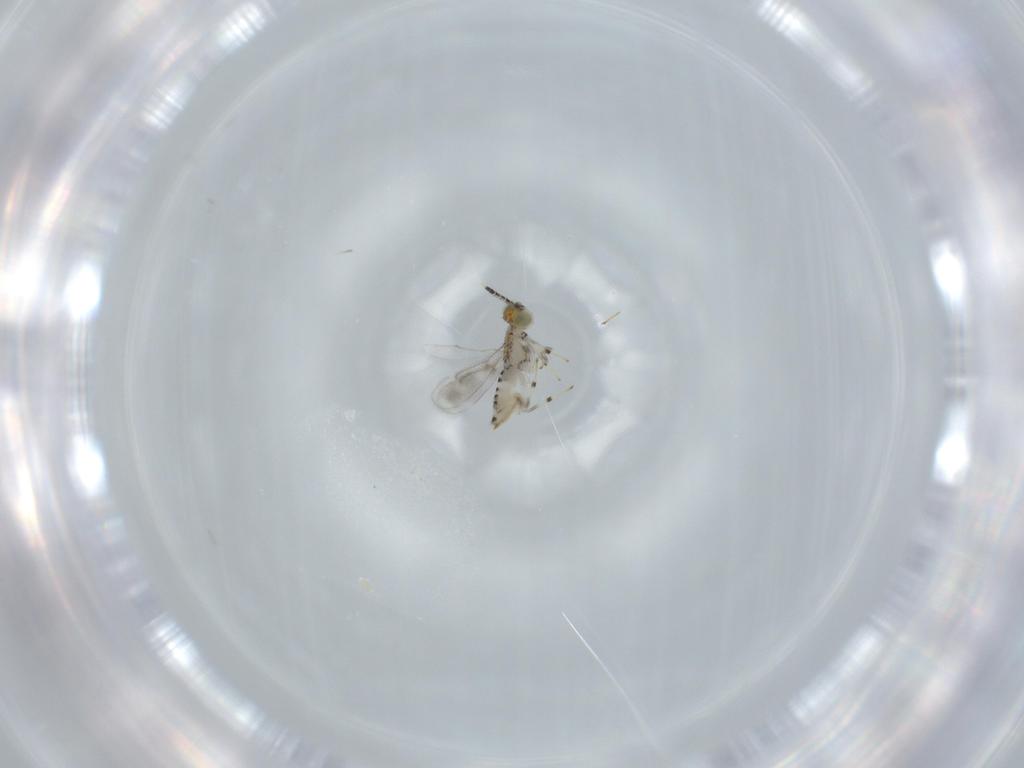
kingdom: Animalia
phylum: Arthropoda
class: Insecta
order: Hymenoptera
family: Aphelinidae
